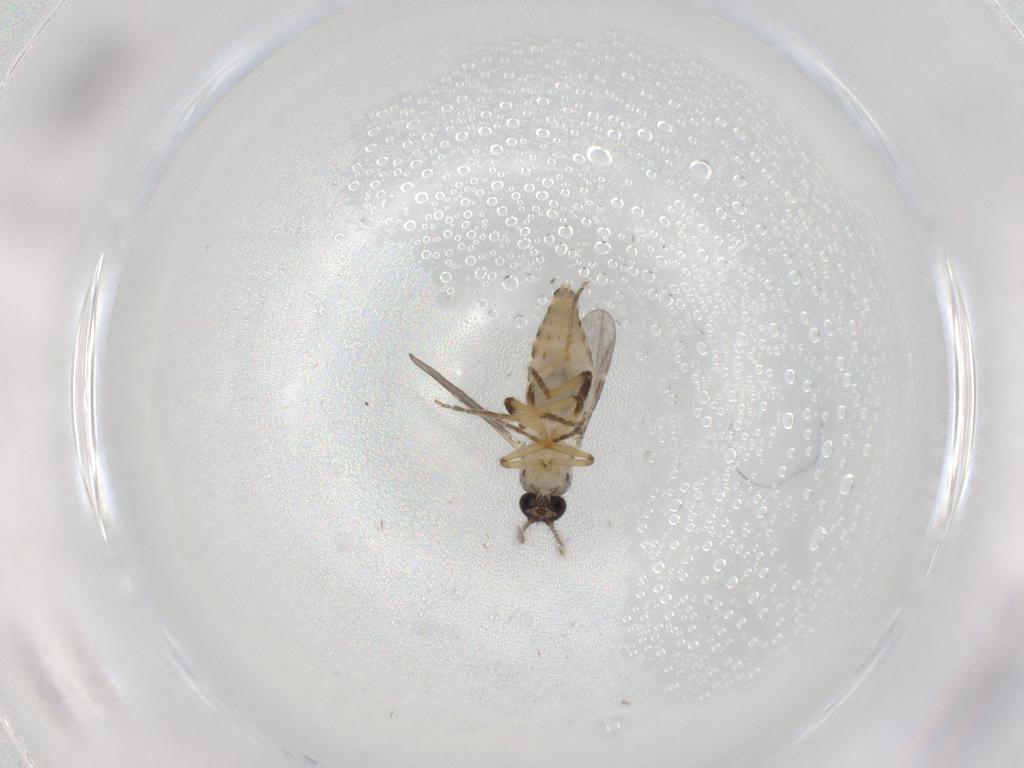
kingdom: Animalia
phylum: Arthropoda
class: Insecta
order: Diptera
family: Ceratopogonidae
